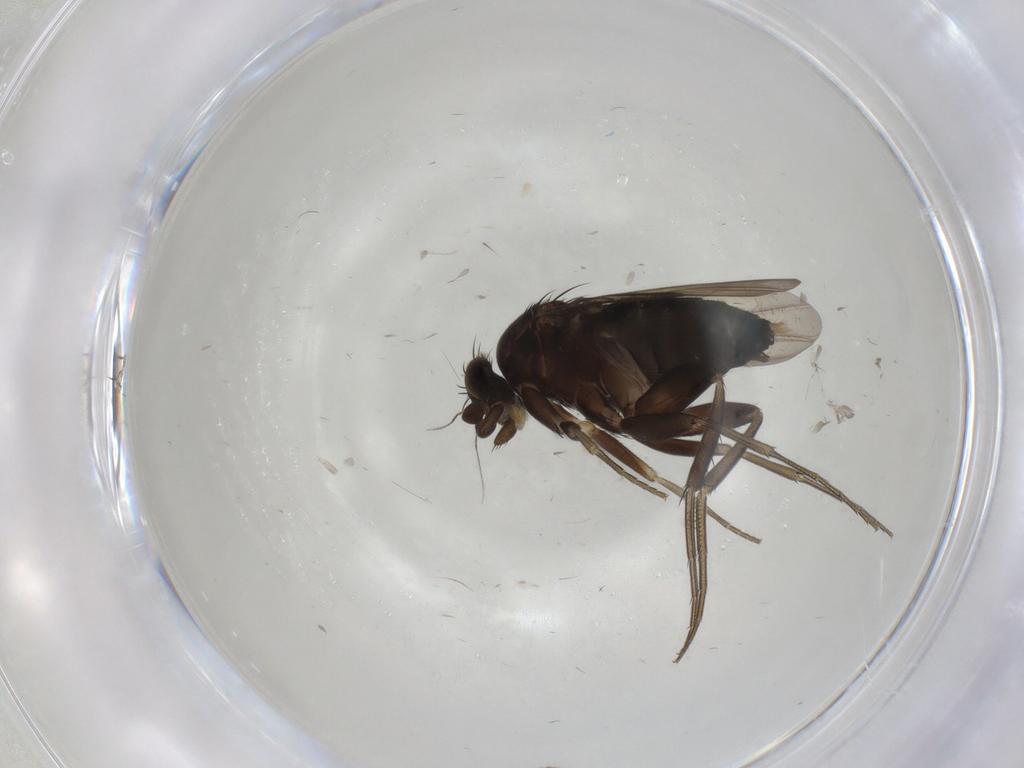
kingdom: Animalia
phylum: Arthropoda
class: Insecta
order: Diptera
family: Phoridae
